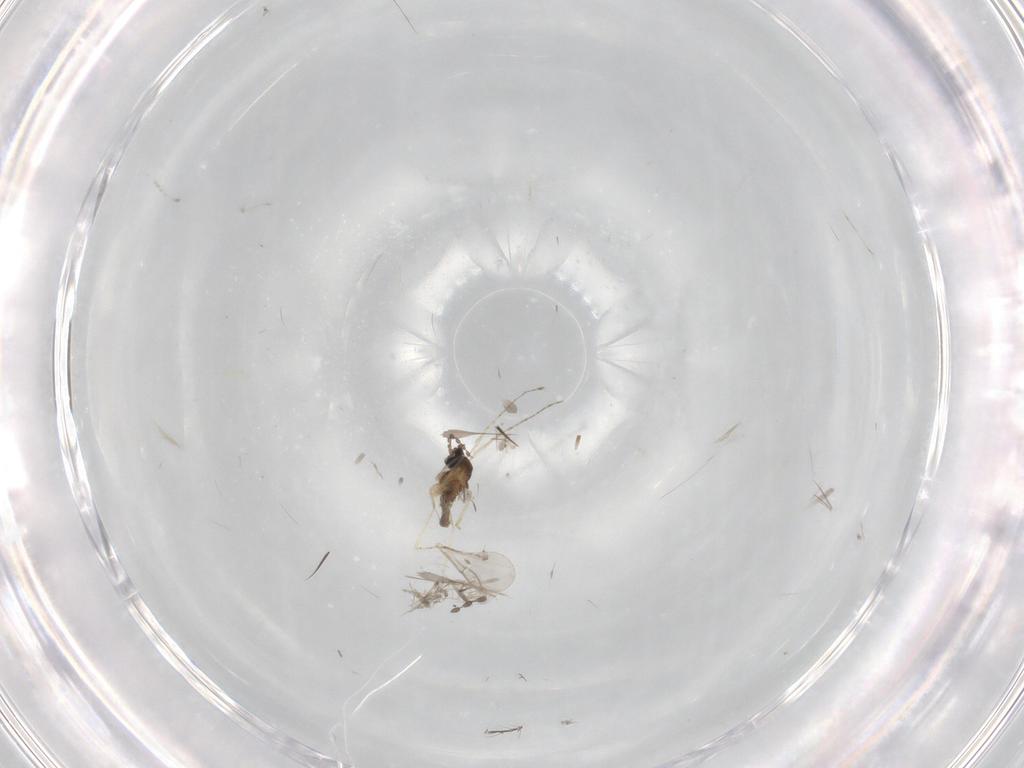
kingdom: Animalia
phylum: Arthropoda
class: Insecta
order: Diptera
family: Cecidomyiidae
